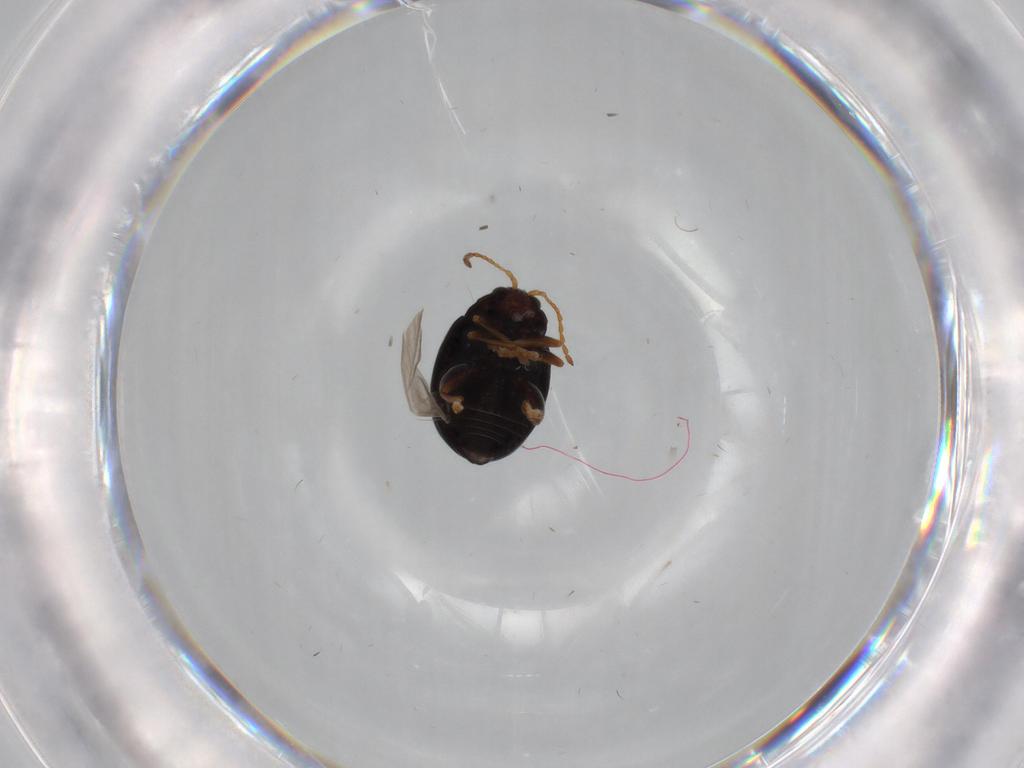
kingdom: Animalia
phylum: Arthropoda
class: Insecta
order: Coleoptera
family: Chrysomelidae
